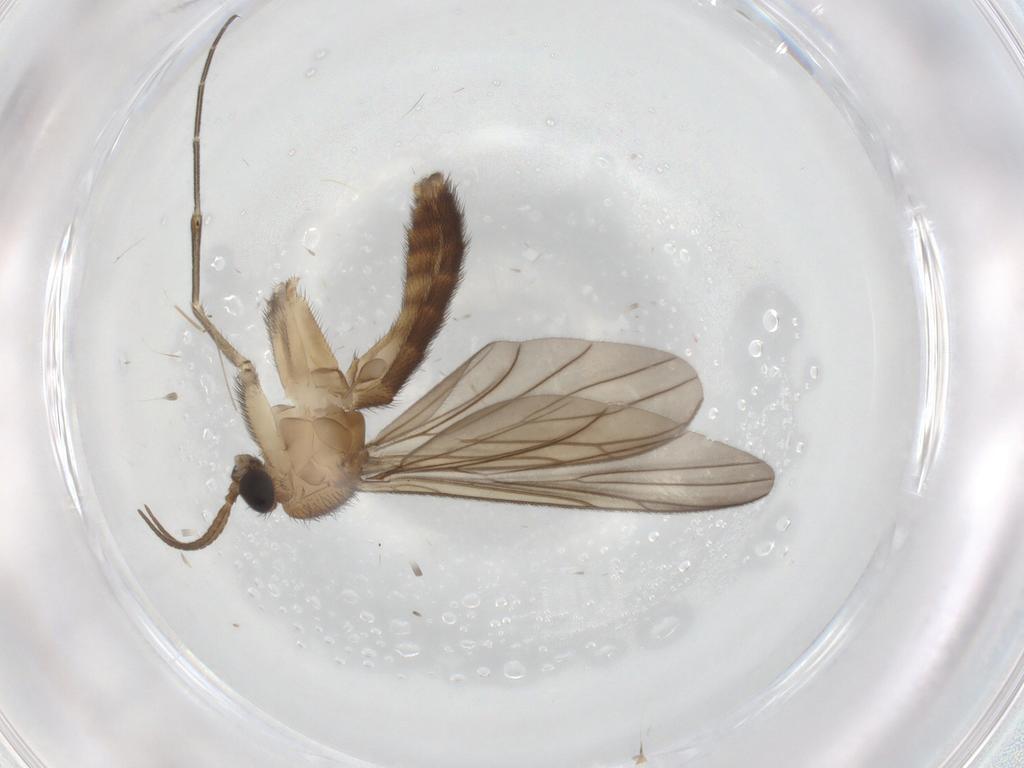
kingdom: Animalia
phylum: Arthropoda
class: Insecta
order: Diptera
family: Keroplatidae
